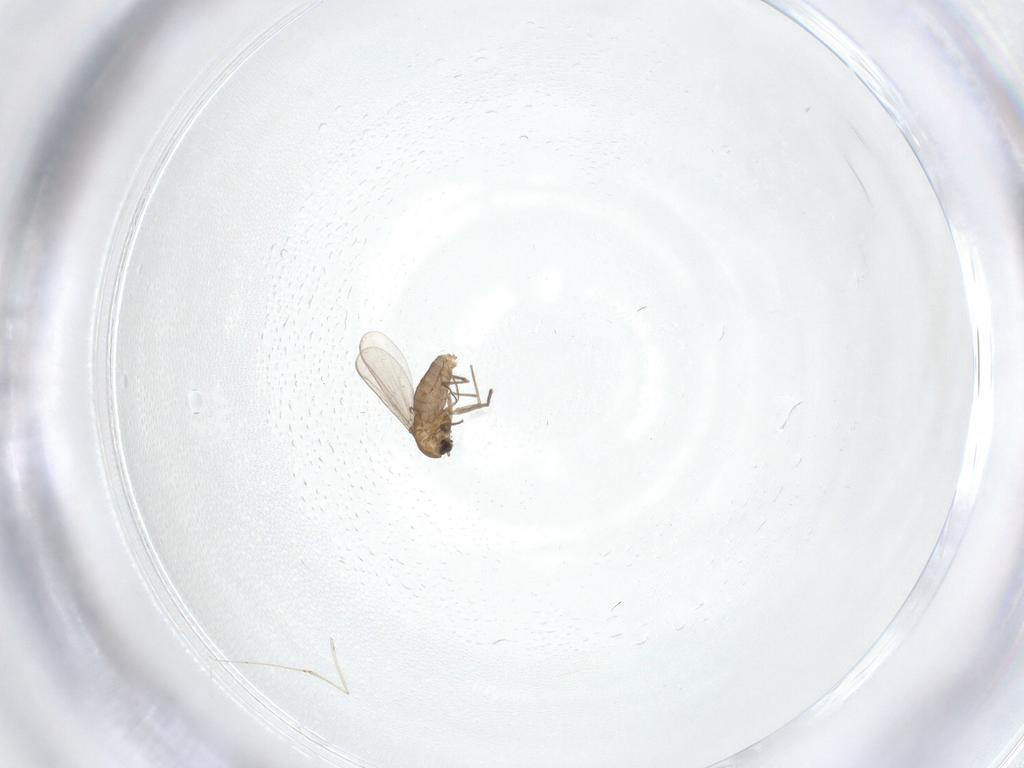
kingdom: Animalia
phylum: Arthropoda
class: Insecta
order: Diptera
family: Chironomidae
